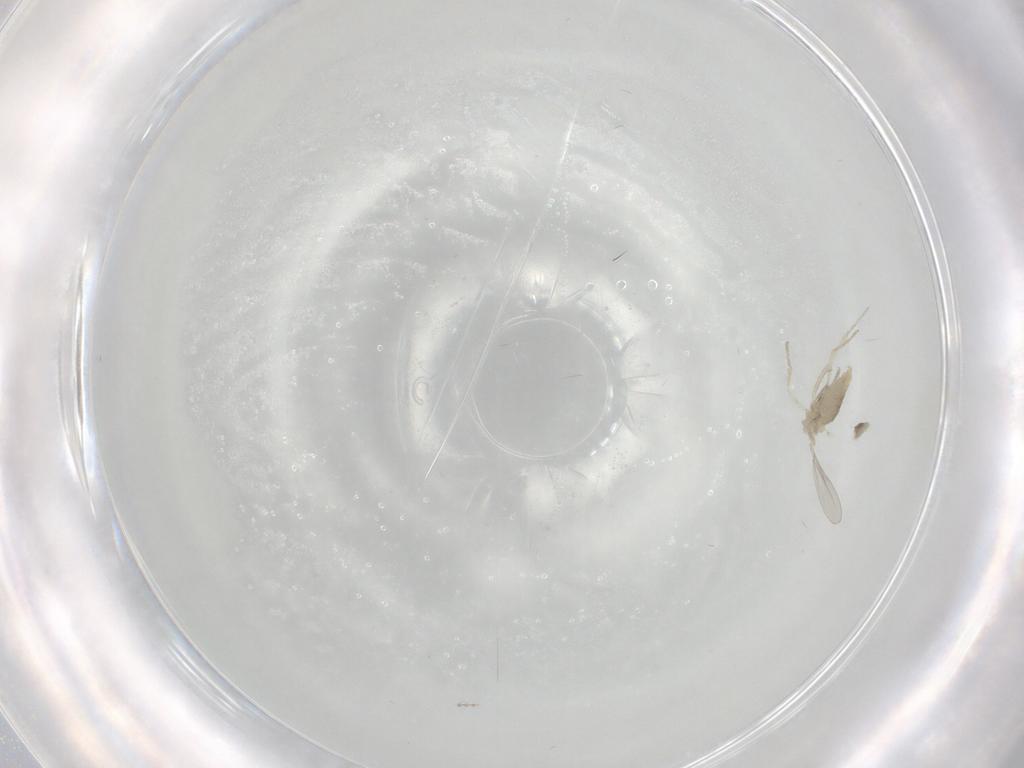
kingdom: Animalia
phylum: Arthropoda
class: Insecta
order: Diptera
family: Cecidomyiidae
